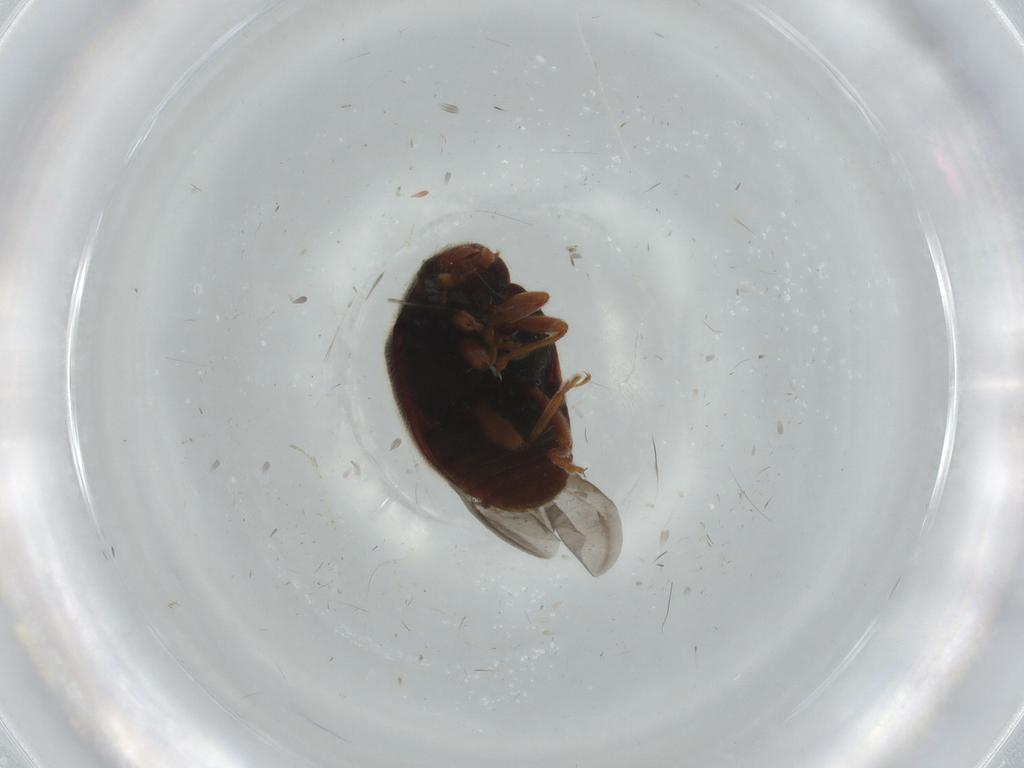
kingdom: Animalia
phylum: Arthropoda
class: Insecta
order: Coleoptera
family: Coccinellidae
